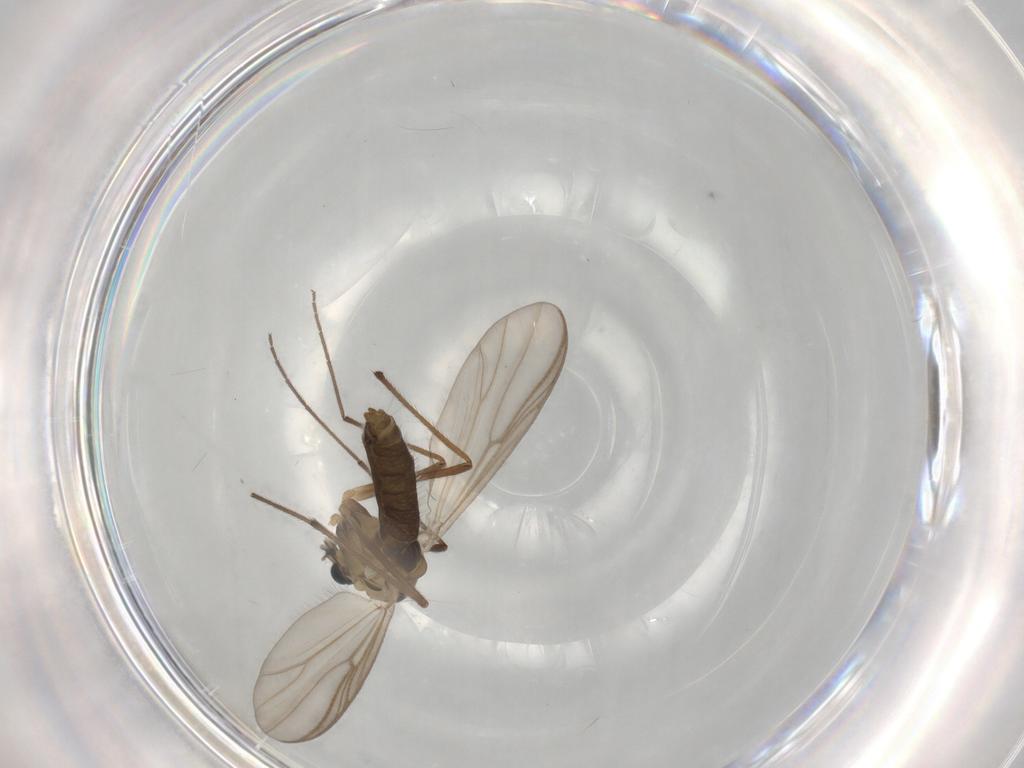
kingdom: Animalia
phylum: Arthropoda
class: Insecta
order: Diptera
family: Chironomidae
